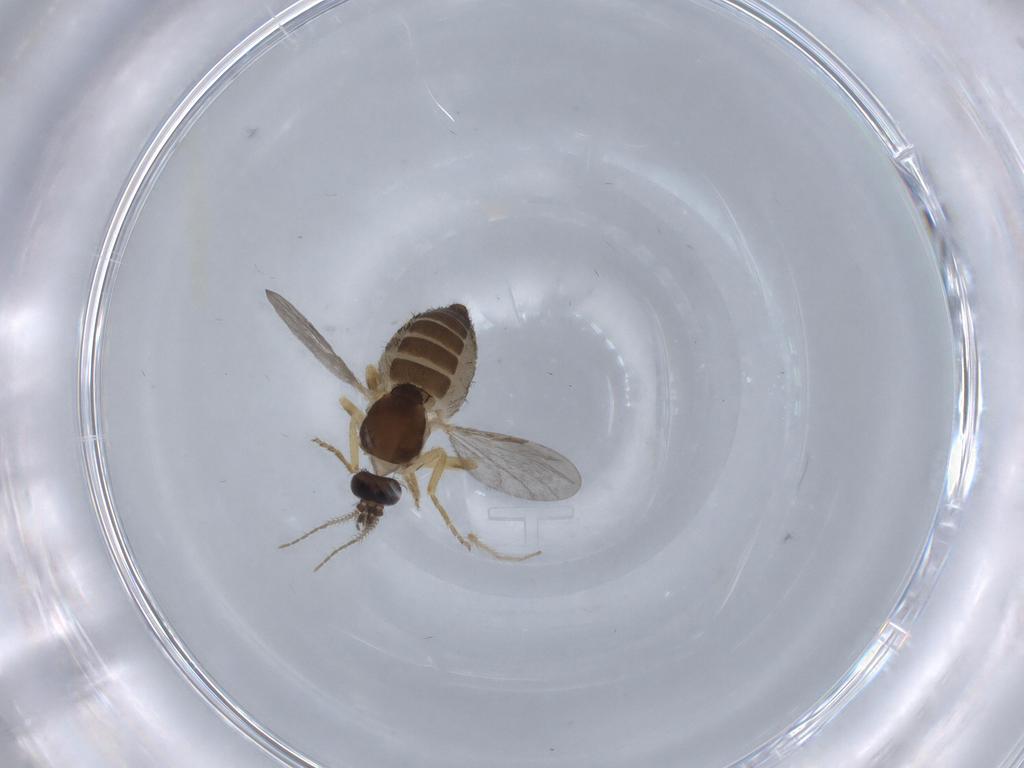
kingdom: Animalia
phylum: Arthropoda
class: Insecta
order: Diptera
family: Ceratopogonidae
